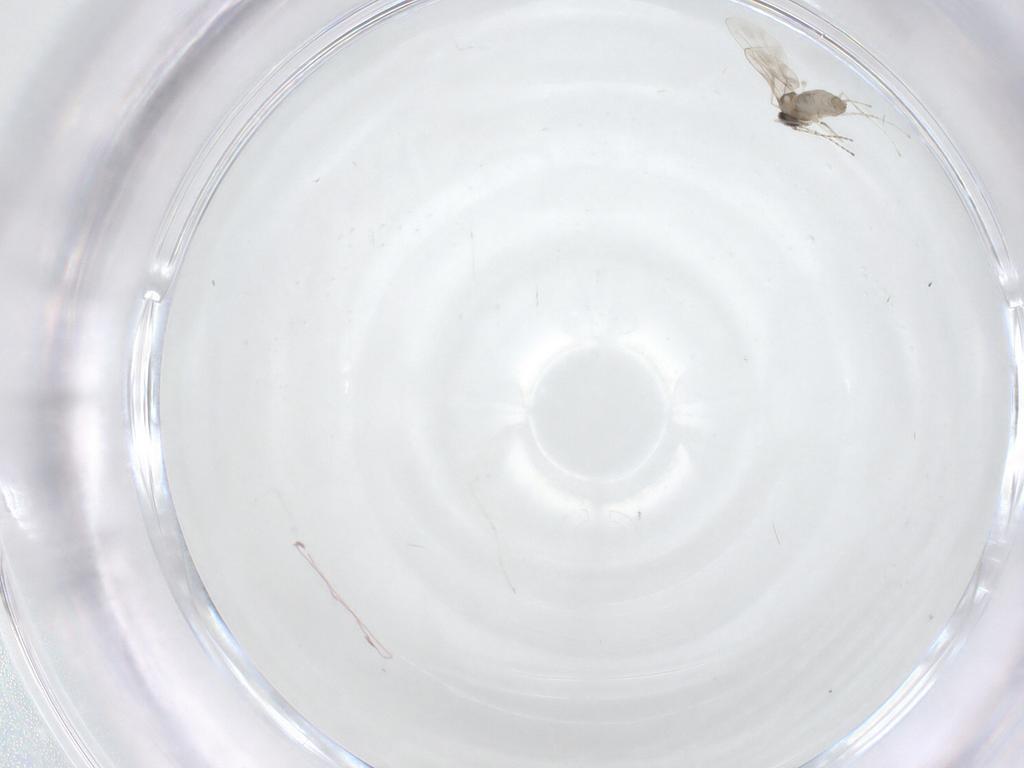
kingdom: Animalia
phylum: Arthropoda
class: Insecta
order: Diptera
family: Cecidomyiidae
